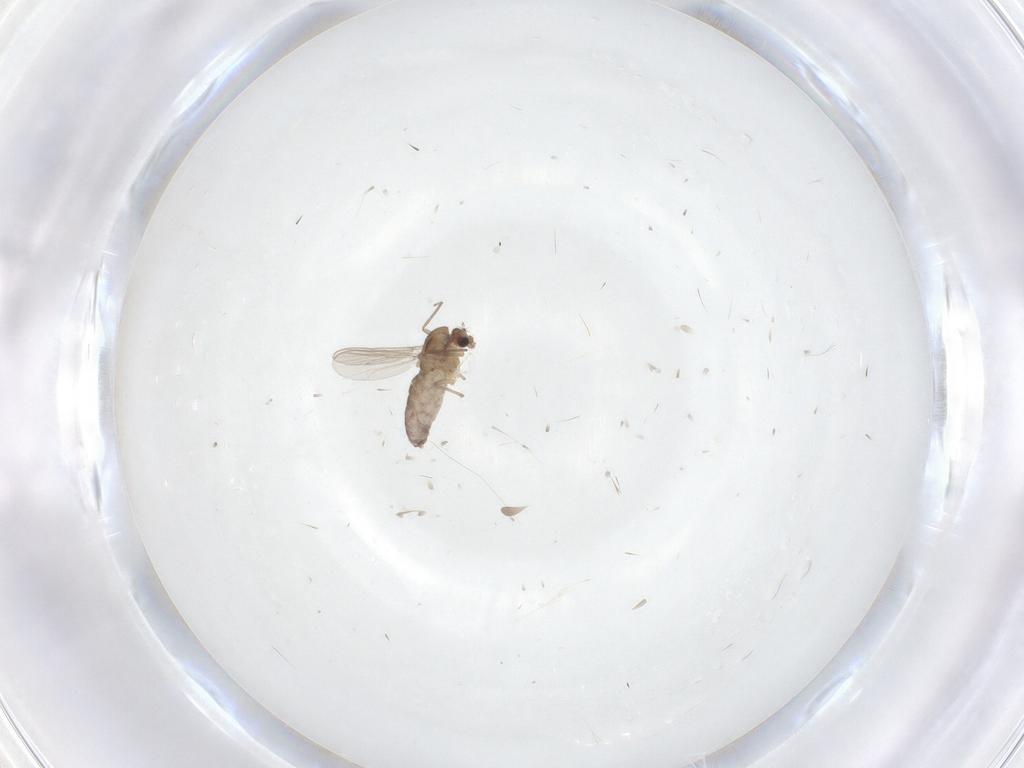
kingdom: Animalia
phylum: Arthropoda
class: Insecta
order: Diptera
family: Chironomidae
